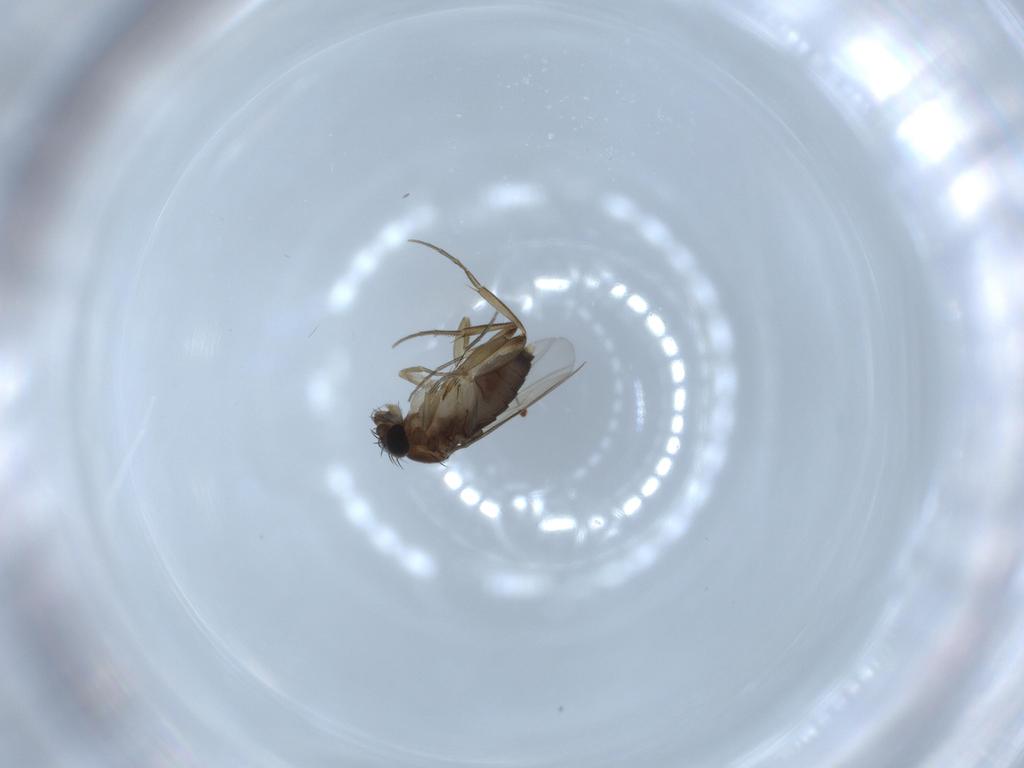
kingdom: Animalia
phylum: Arthropoda
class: Insecta
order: Diptera
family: Phoridae
